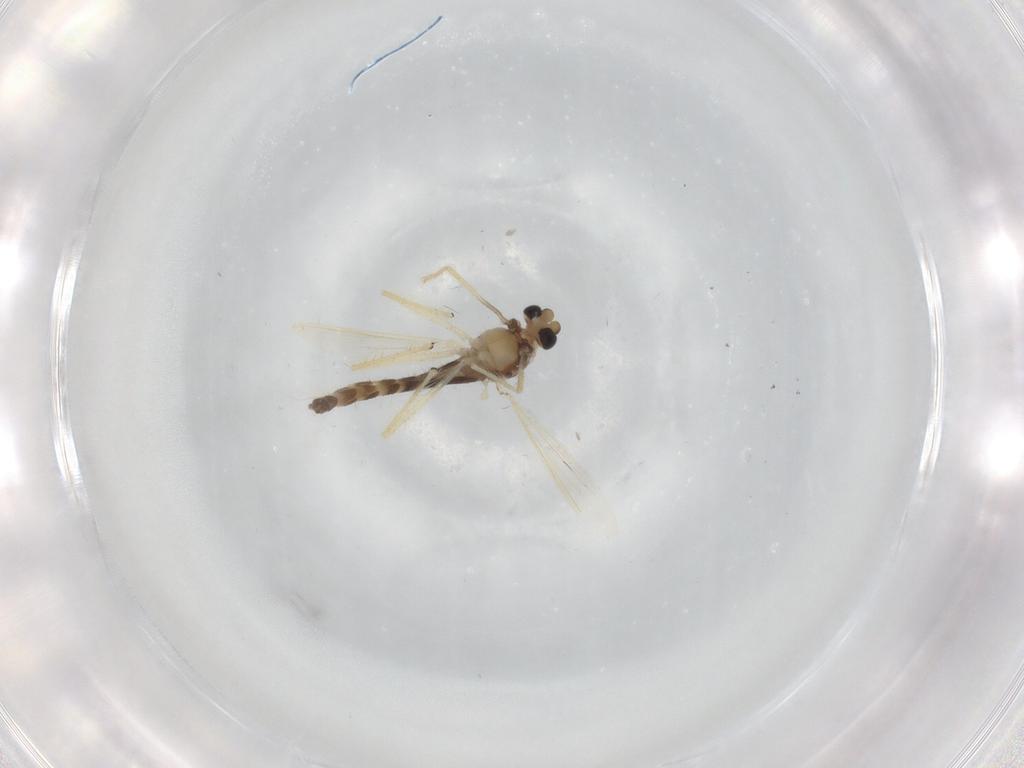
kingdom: Animalia
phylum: Arthropoda
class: Insecta
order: Diptera
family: Chironomidae
